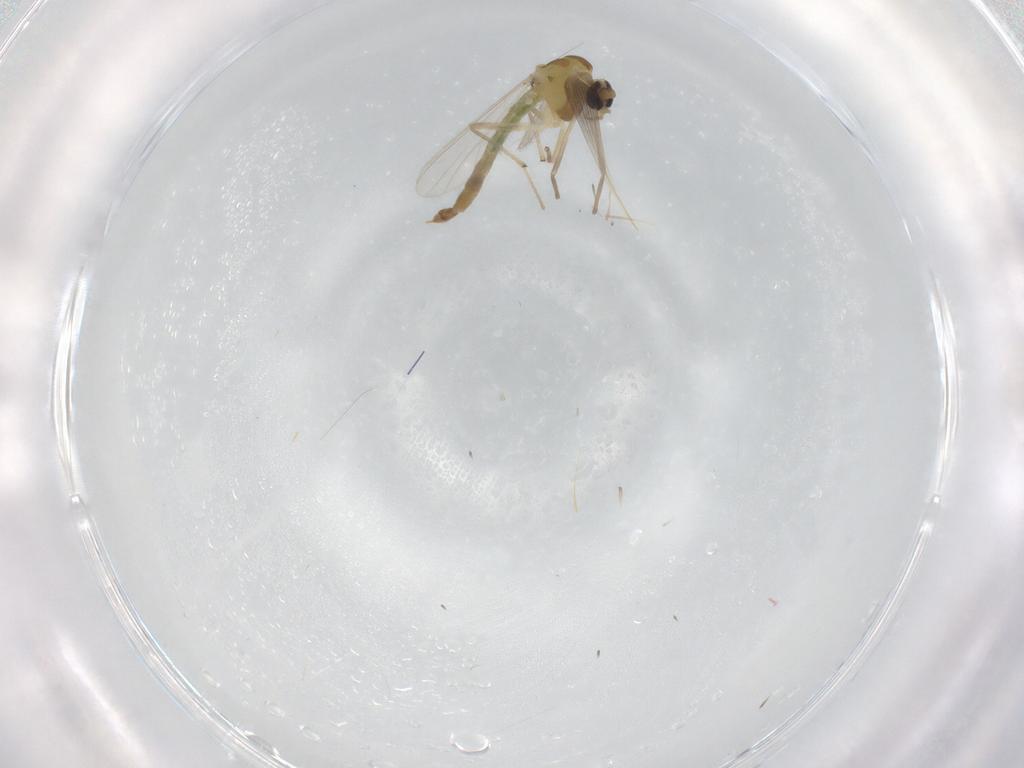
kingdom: Animalia
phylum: Arthropoda
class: Insecta
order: Diptera
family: Chironomidae
